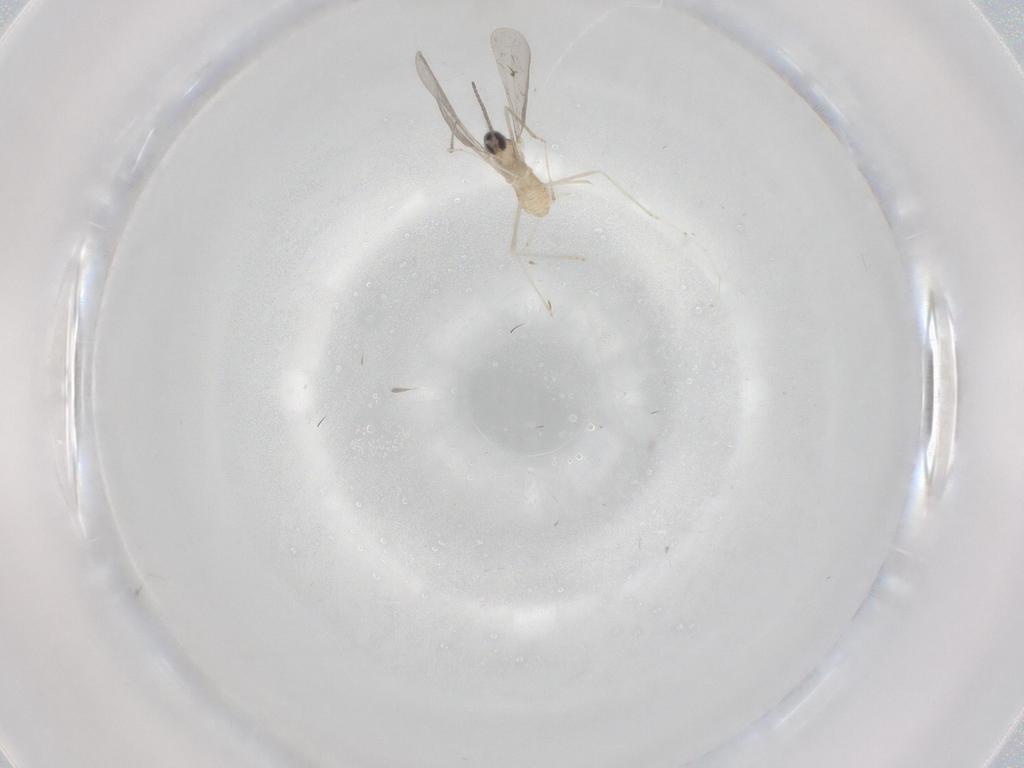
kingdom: Animalia
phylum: Arthropoda
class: Insecta
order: Diptera
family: Cecidomyiidae
